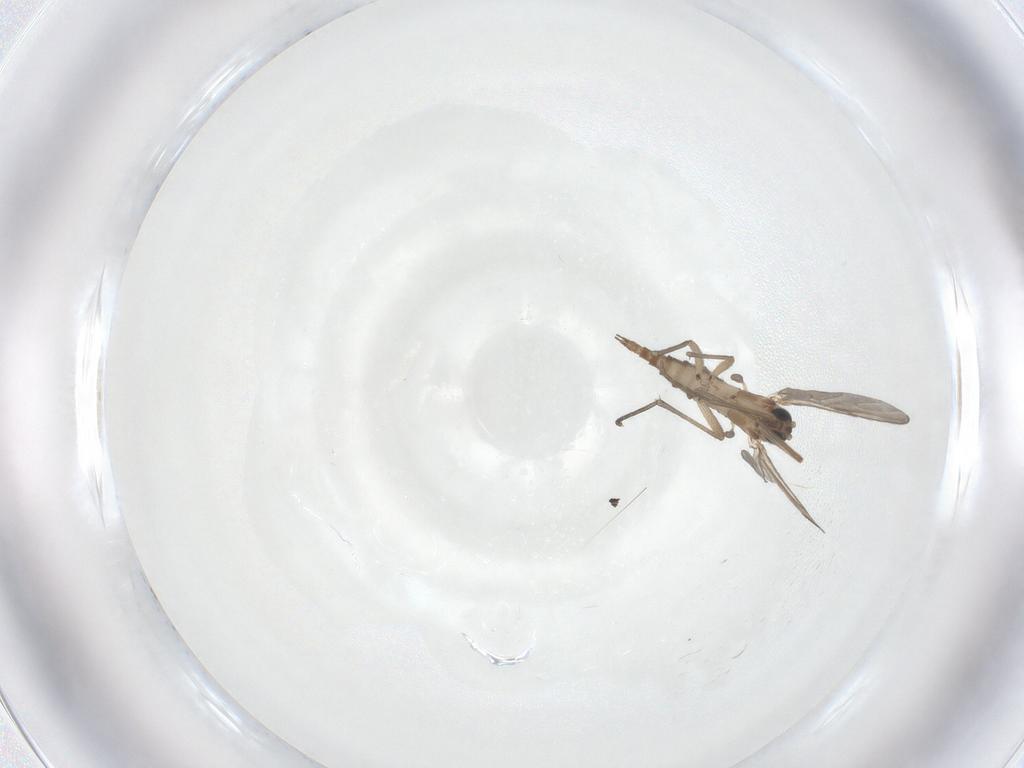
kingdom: Animalia
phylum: Arthropoda
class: Insecta
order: Diptera
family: Chloropidae
